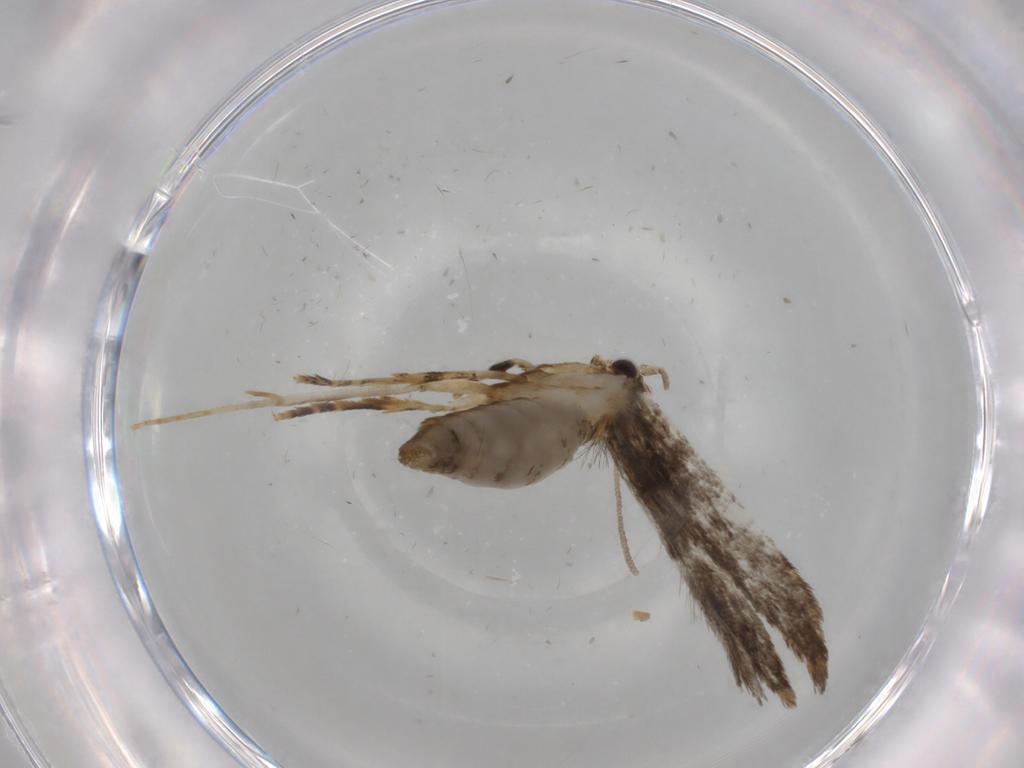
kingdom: Animalia
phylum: Arthropoda
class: Insecta
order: Lepidoptera
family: Tineidae
